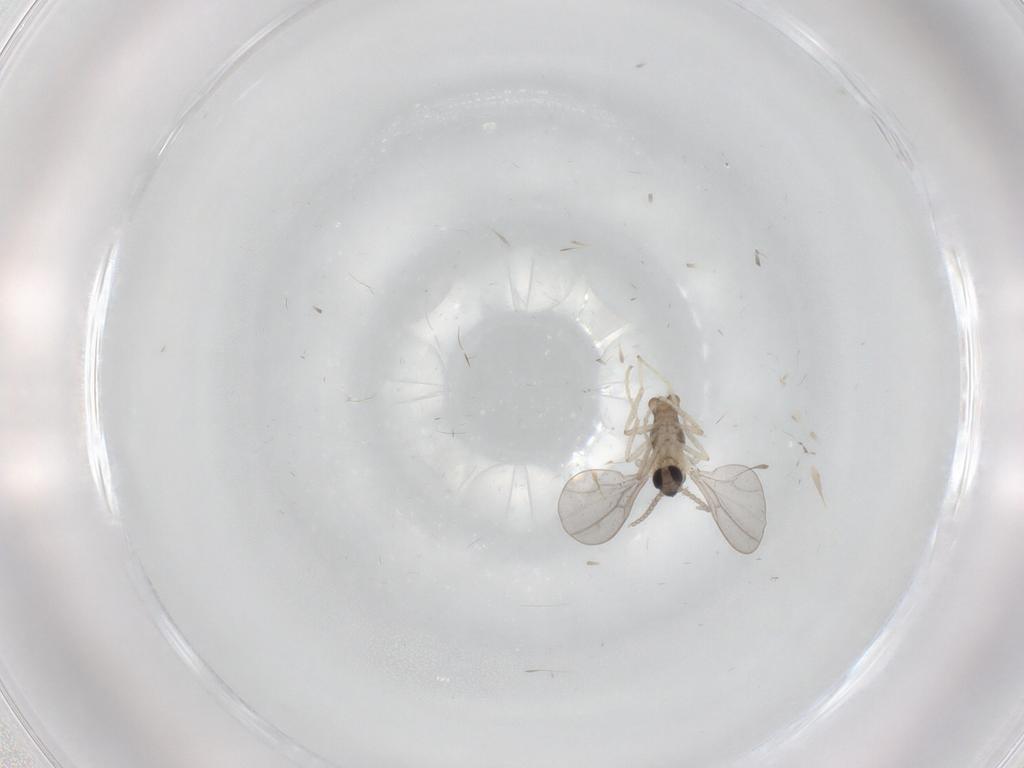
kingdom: Animalia
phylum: Arthropoda
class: Insecta
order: Diptera
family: Cecidomyiidae
